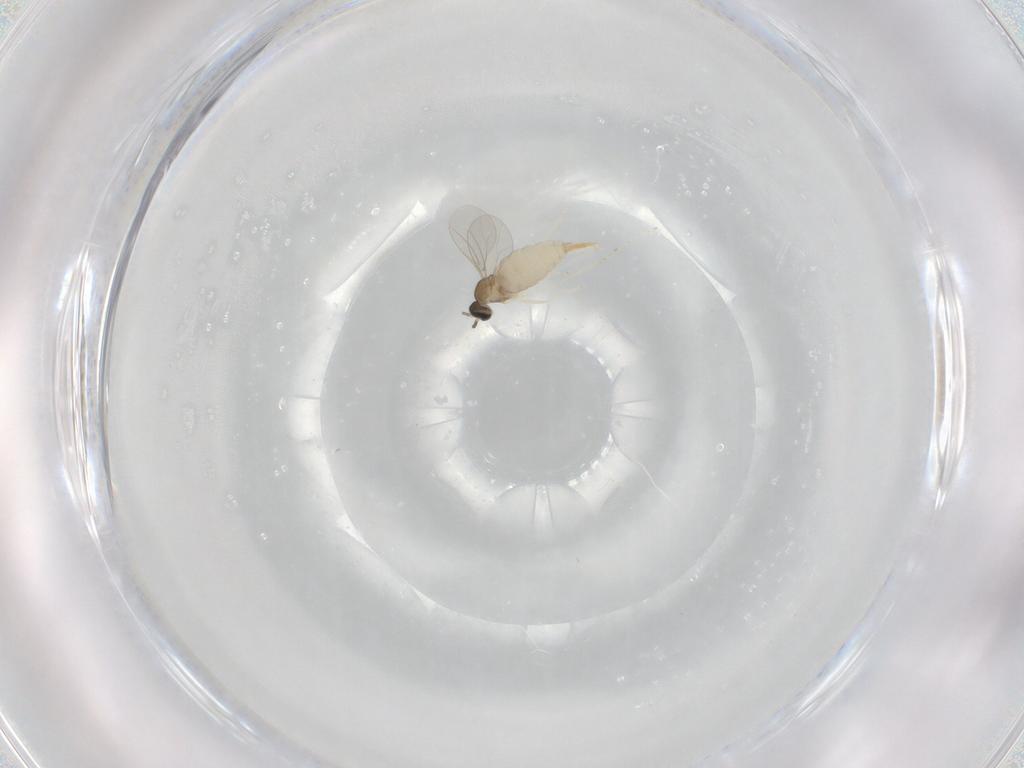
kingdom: Animalia
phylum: Arthropoda
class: Insecta
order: Diptera
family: Cecidomyiidae
